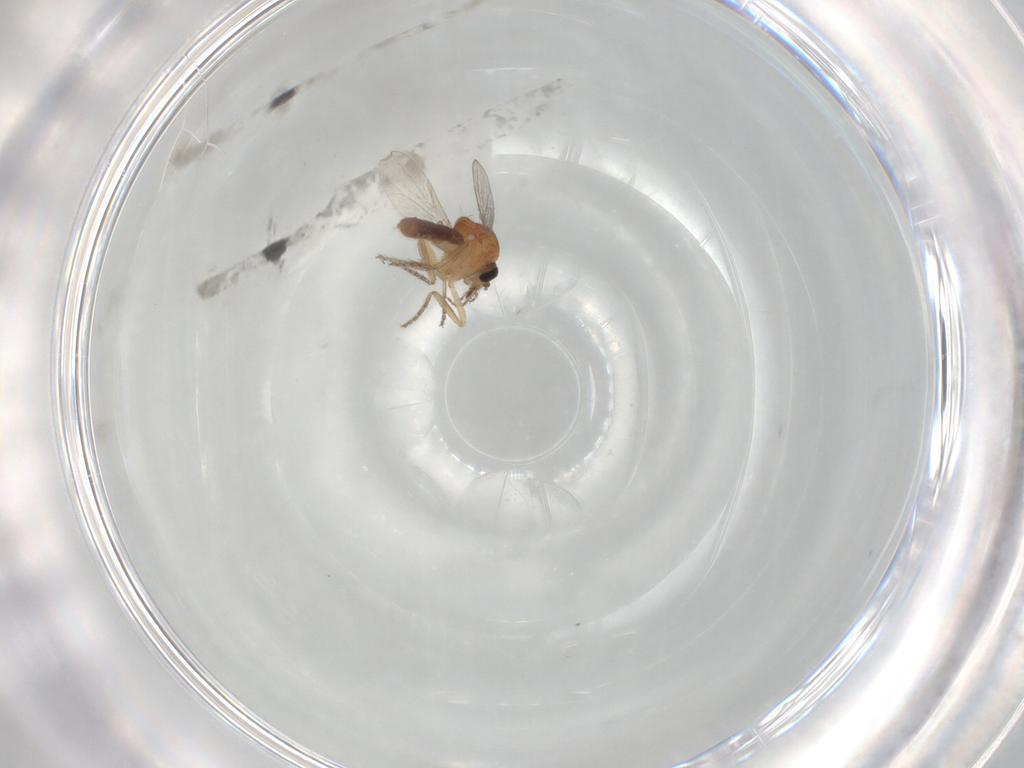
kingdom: Animalia
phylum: Arthropoda
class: Insecta
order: Diptera
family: Ceratopogonidae
